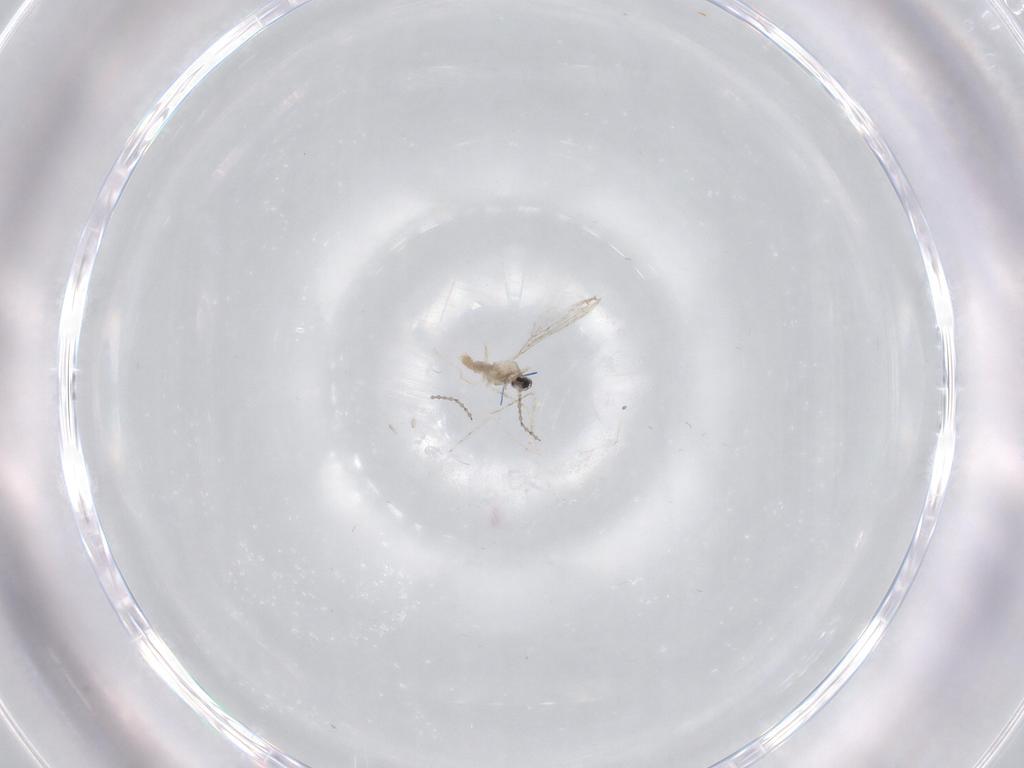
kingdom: Animalia
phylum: Arthropoda
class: Insecta
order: Diptera
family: Cecidomyiidae
